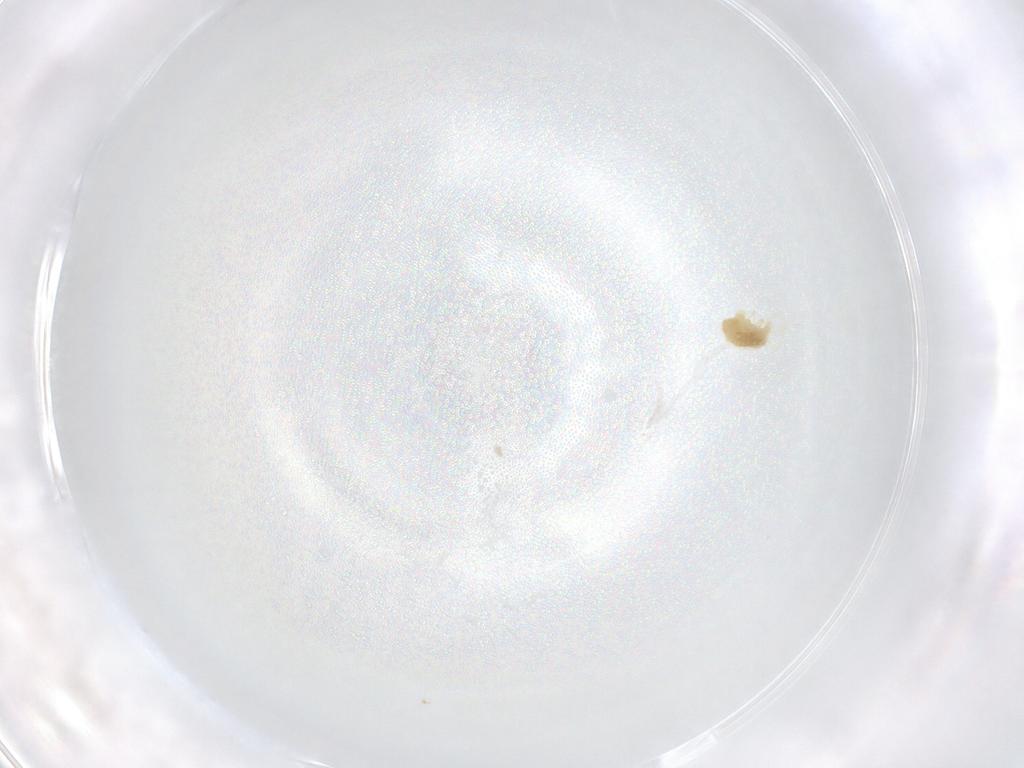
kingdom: Animalia
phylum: Arthropoda
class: Arachnida
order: Trombidiformes
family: Eupodidae
